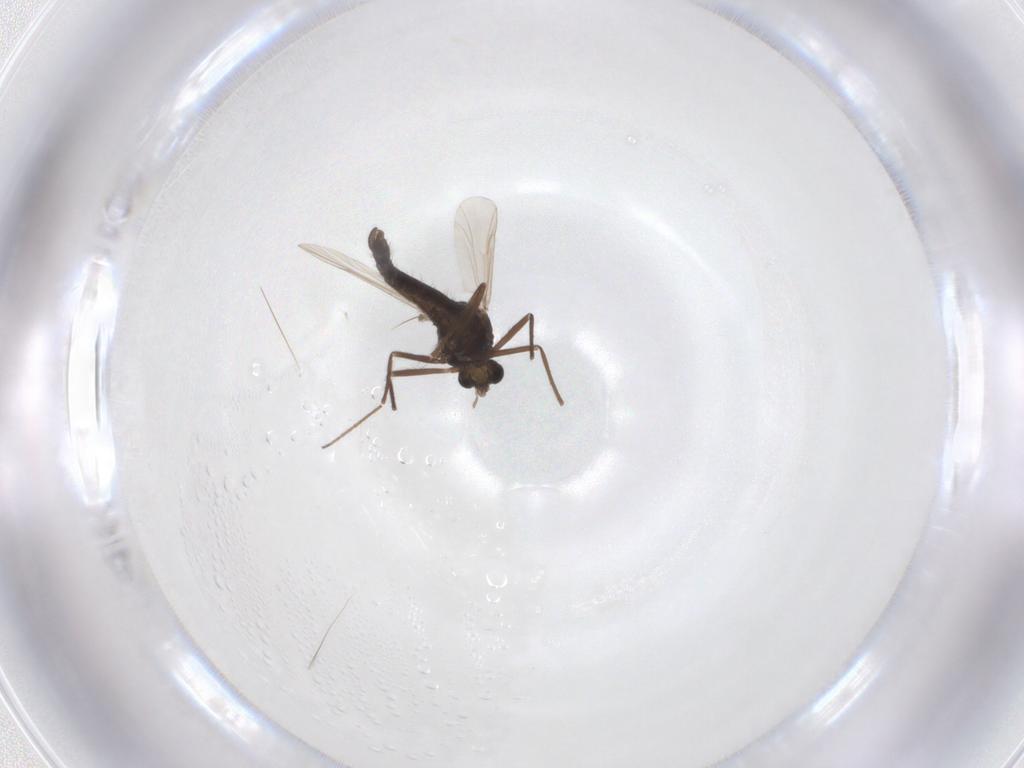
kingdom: Animalia
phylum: Arthropoda
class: Insecta
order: Diptera
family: Chironomidae
